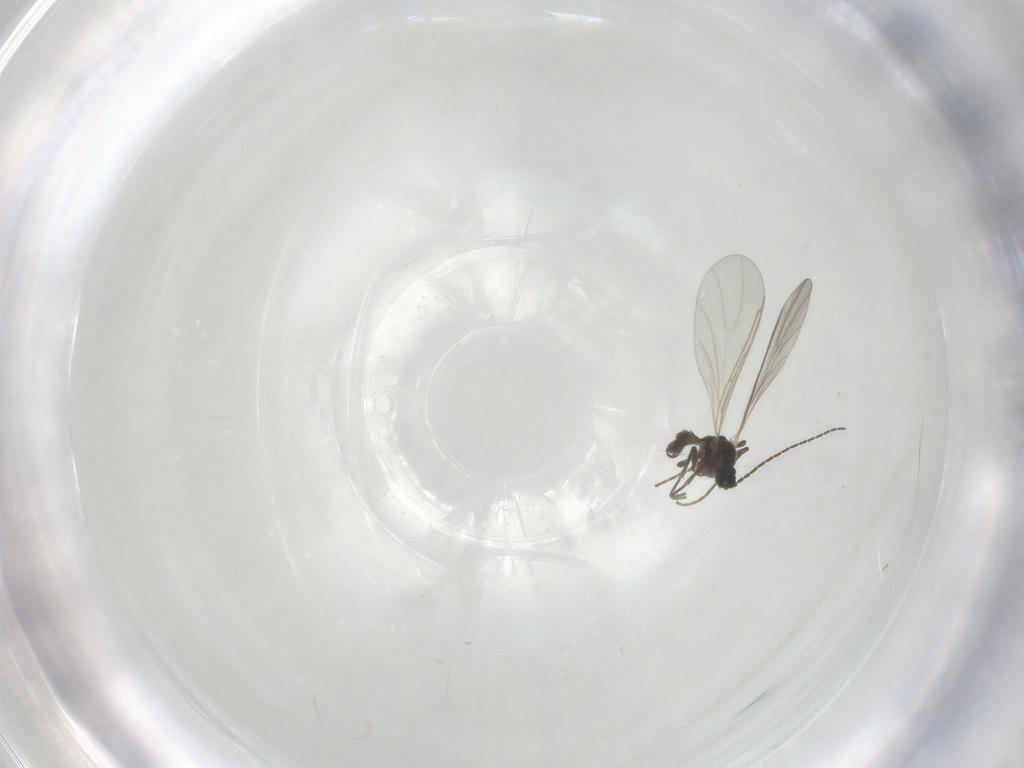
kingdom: Animalia
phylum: Arthropoda
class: Insecta
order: Diptera
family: Sciaridae
